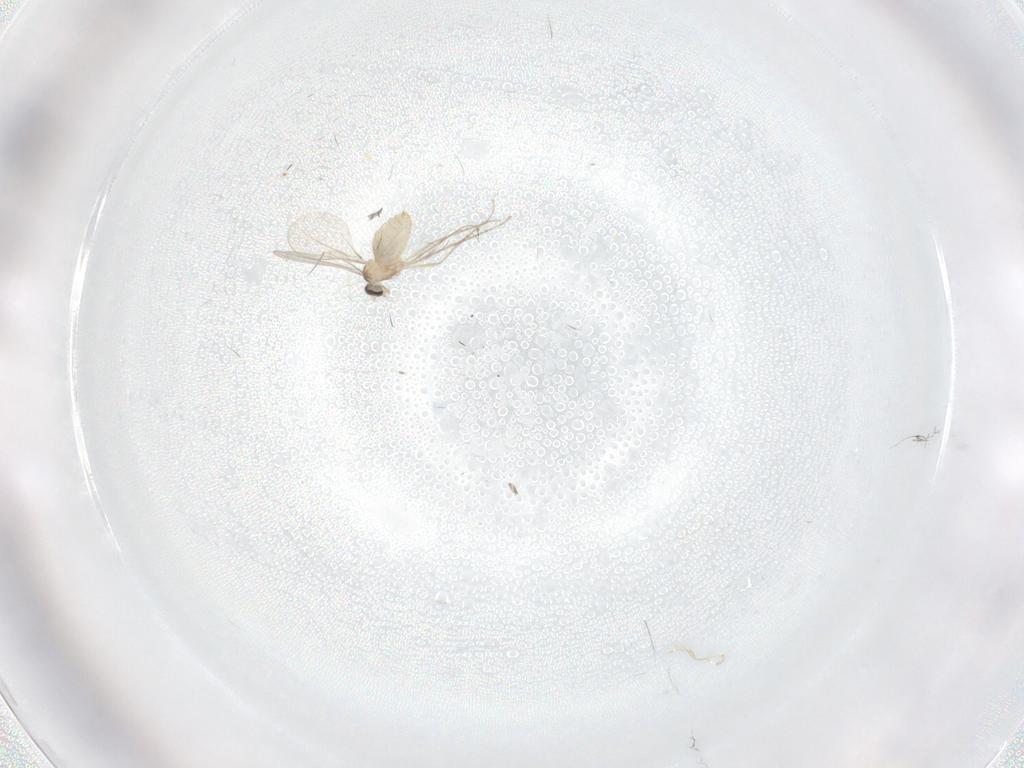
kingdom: Animalia
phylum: Arthropoda
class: Insecta
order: Diptera
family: Cecidomyiidae
